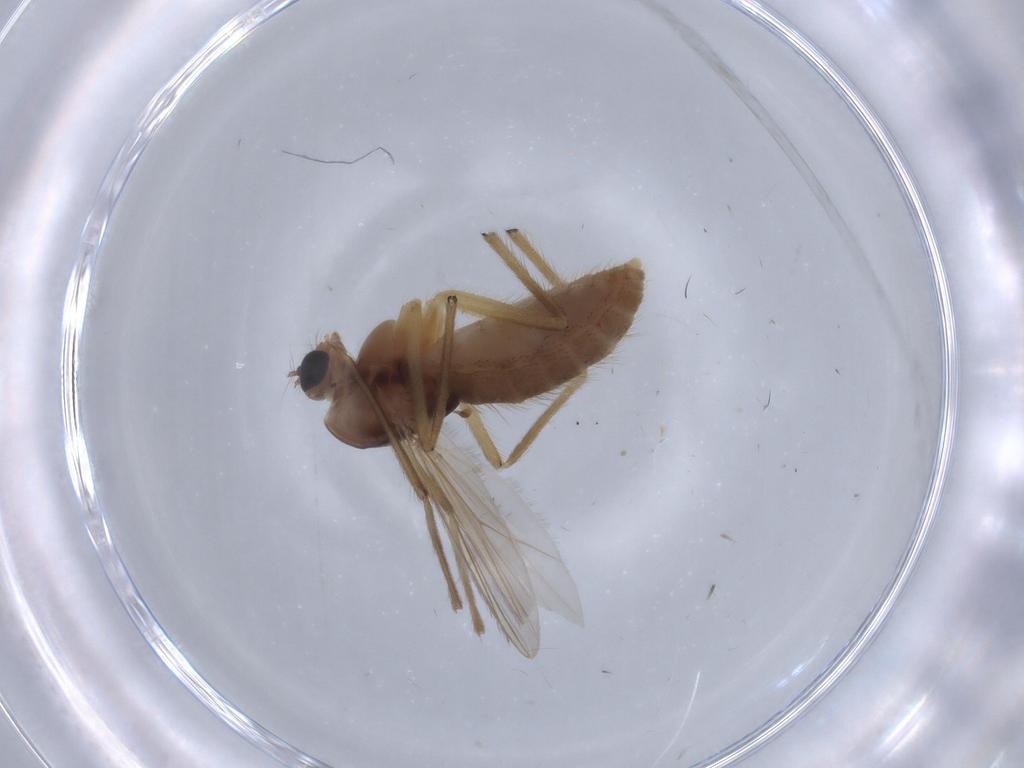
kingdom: Animalia
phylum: Arthropoda
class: Insecta
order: Diptera
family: Chironomidae
